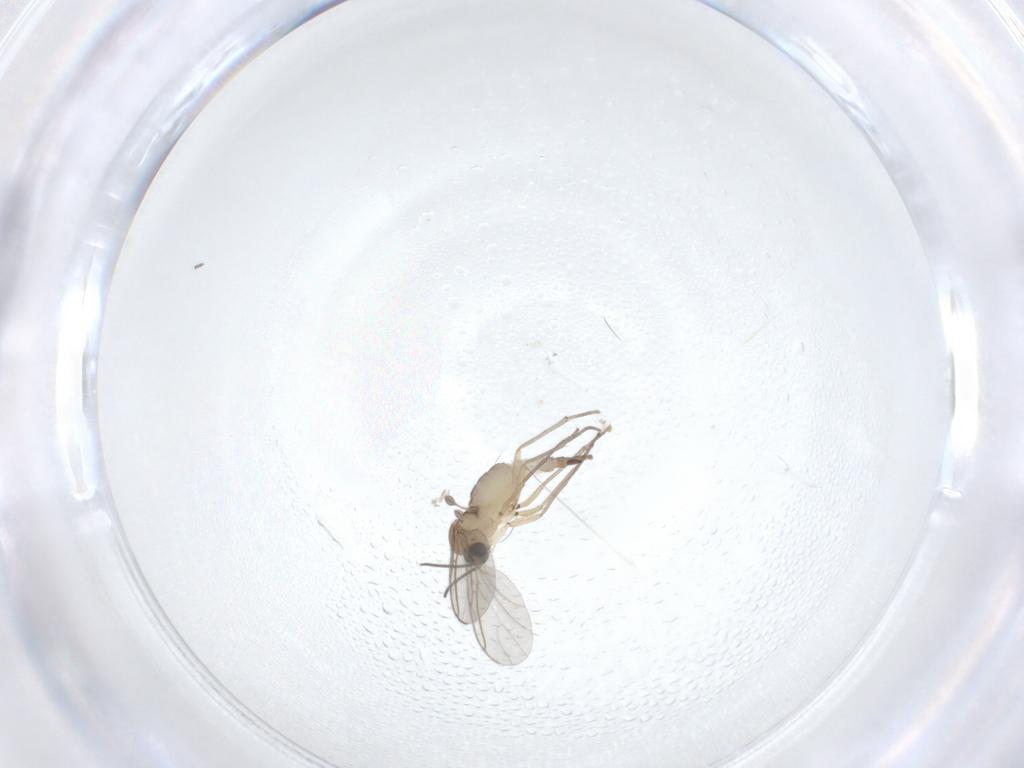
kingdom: Animalia
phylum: Arthropoda
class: Insecta
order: Diptera
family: Sciaridae
